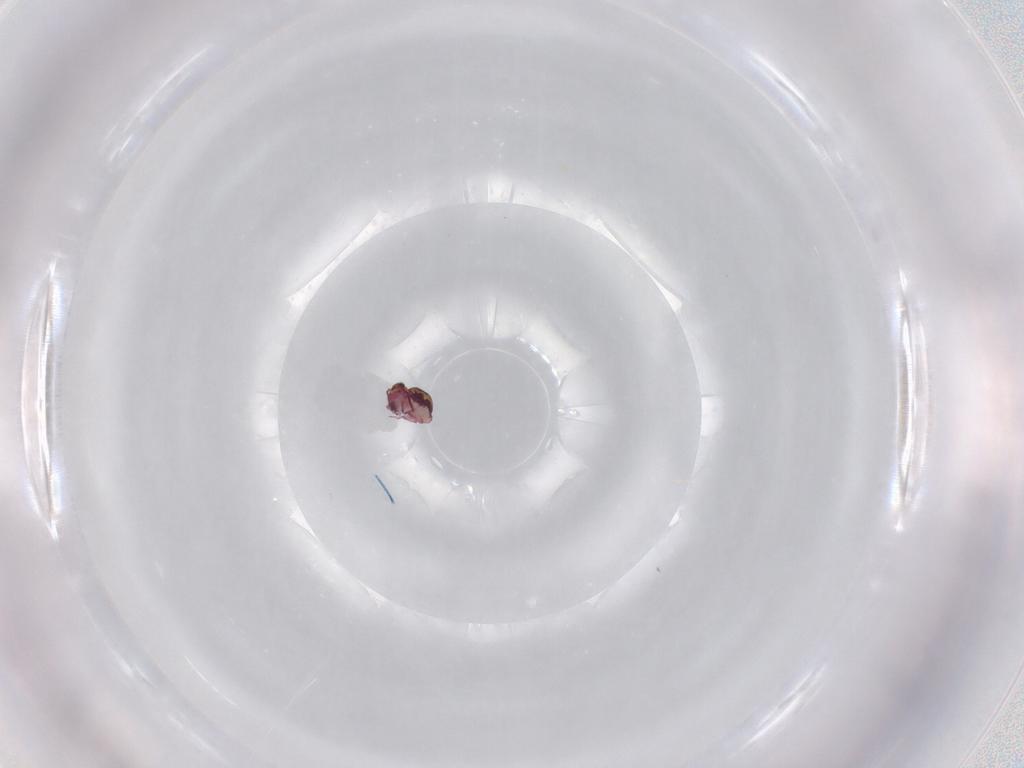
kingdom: Animalia
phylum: Arthropoda
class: Collembola
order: Symphypleona
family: Sminthurididae
